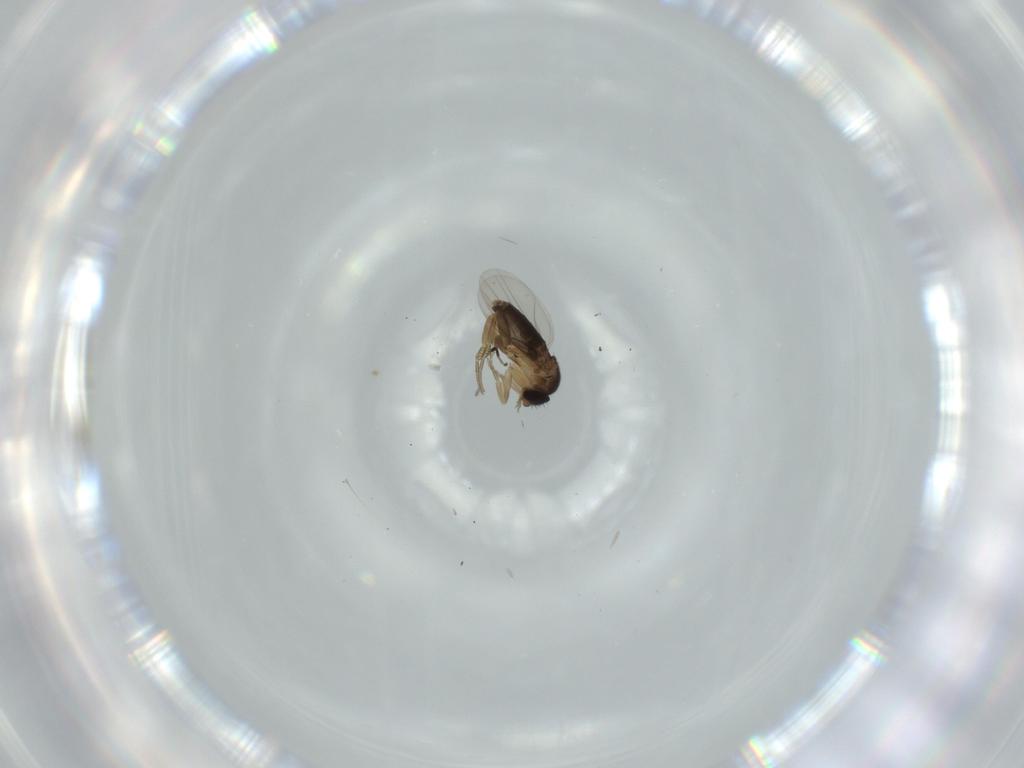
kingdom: Animalia
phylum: Arthropoda
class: Insecta
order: Diptera
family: Phoridae
